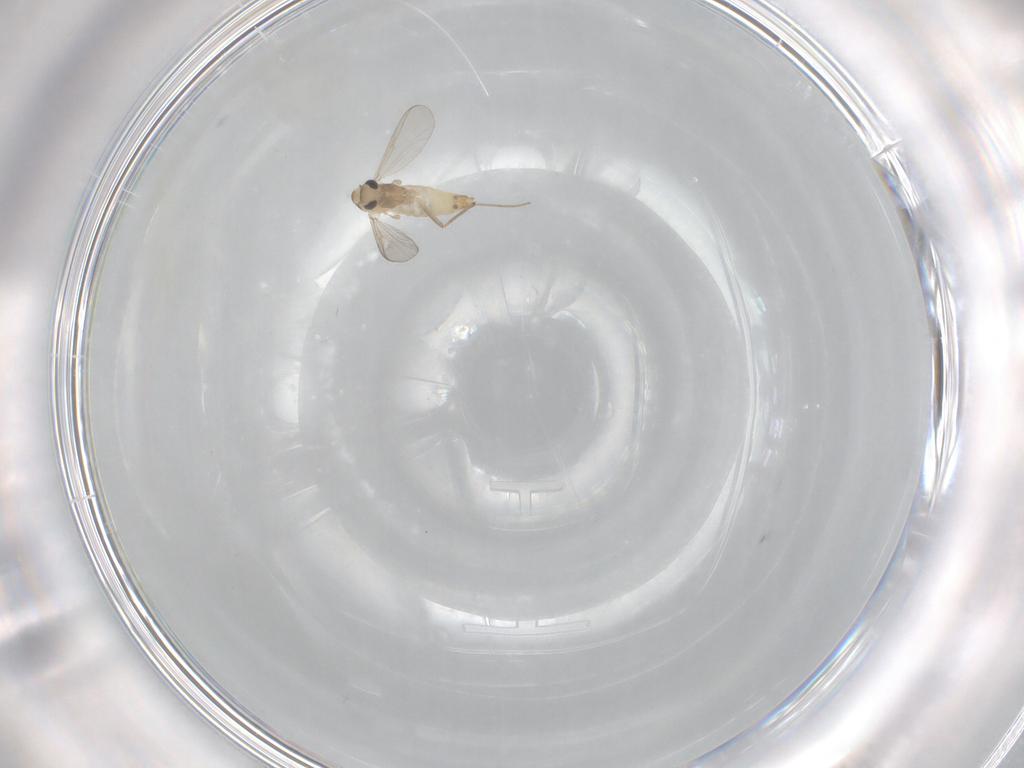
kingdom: Animalia
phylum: Arthropoda
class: Insecta
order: Diptera
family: Chironomidae
